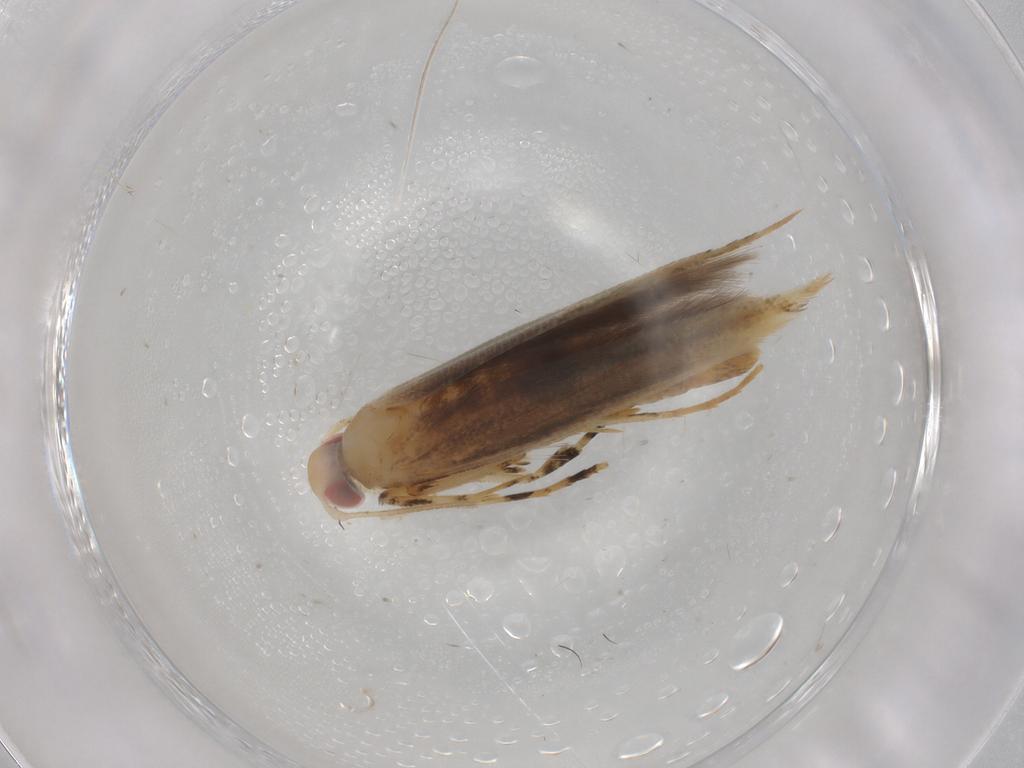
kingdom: Animalia
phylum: Arthropoda
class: Insecta
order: Lepidoptera
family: Cosmopterigidae
